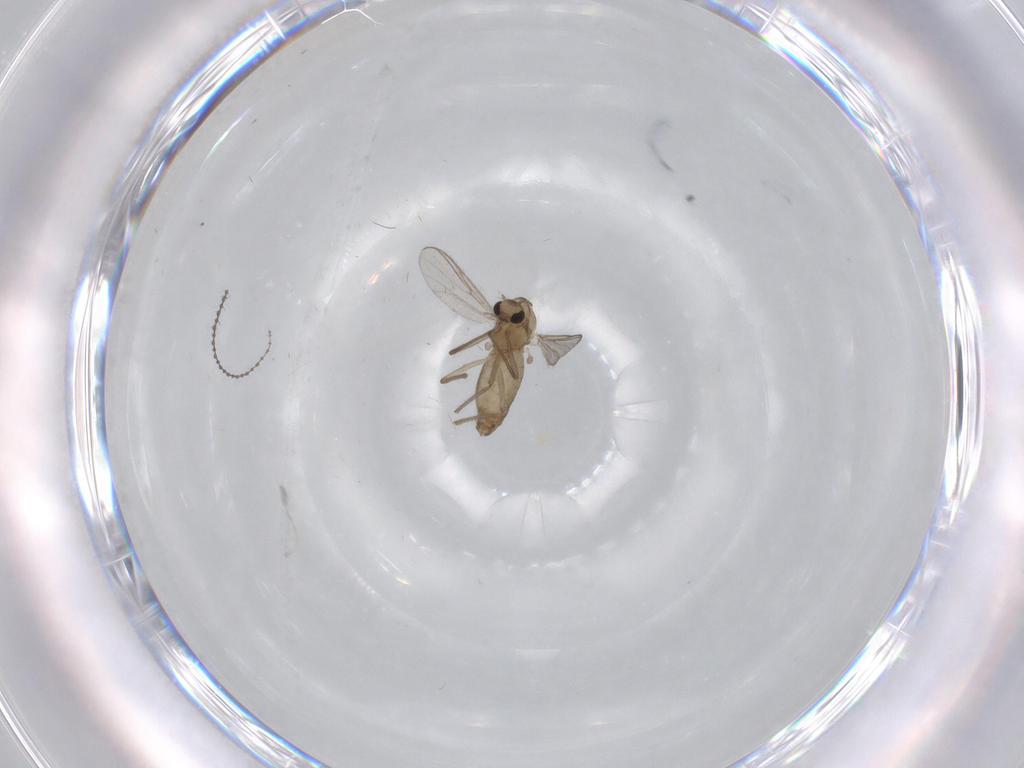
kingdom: Animalia
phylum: Arthropoda
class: Insecta
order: Diptera
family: Chironomidae
